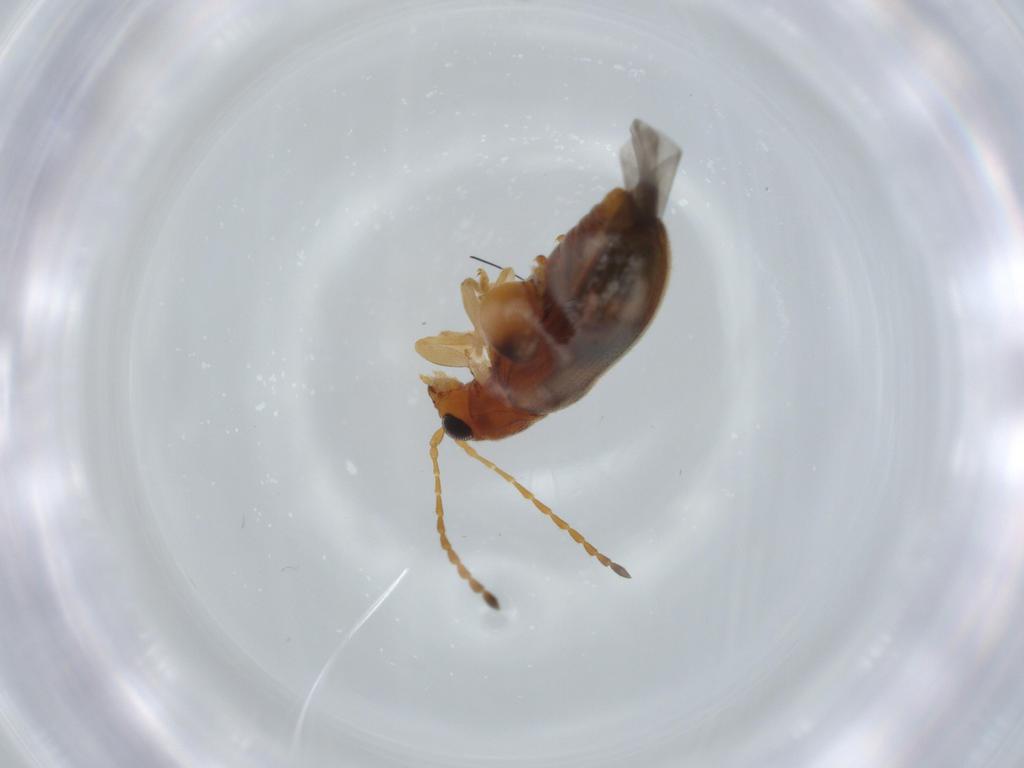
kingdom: Animalia
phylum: Arthropoda
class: Insecta
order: Coleoptera
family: Chrysomelidae
